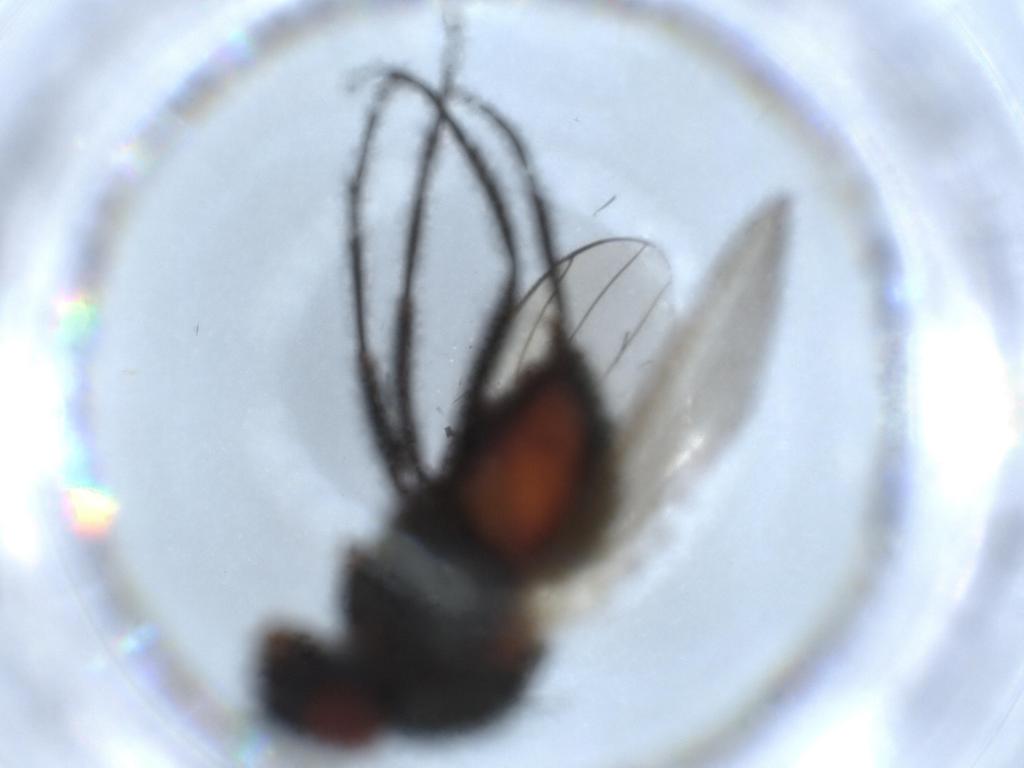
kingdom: Animalia
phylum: Arthropoda
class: Insecta
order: Diptera
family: Anthomyiidae
